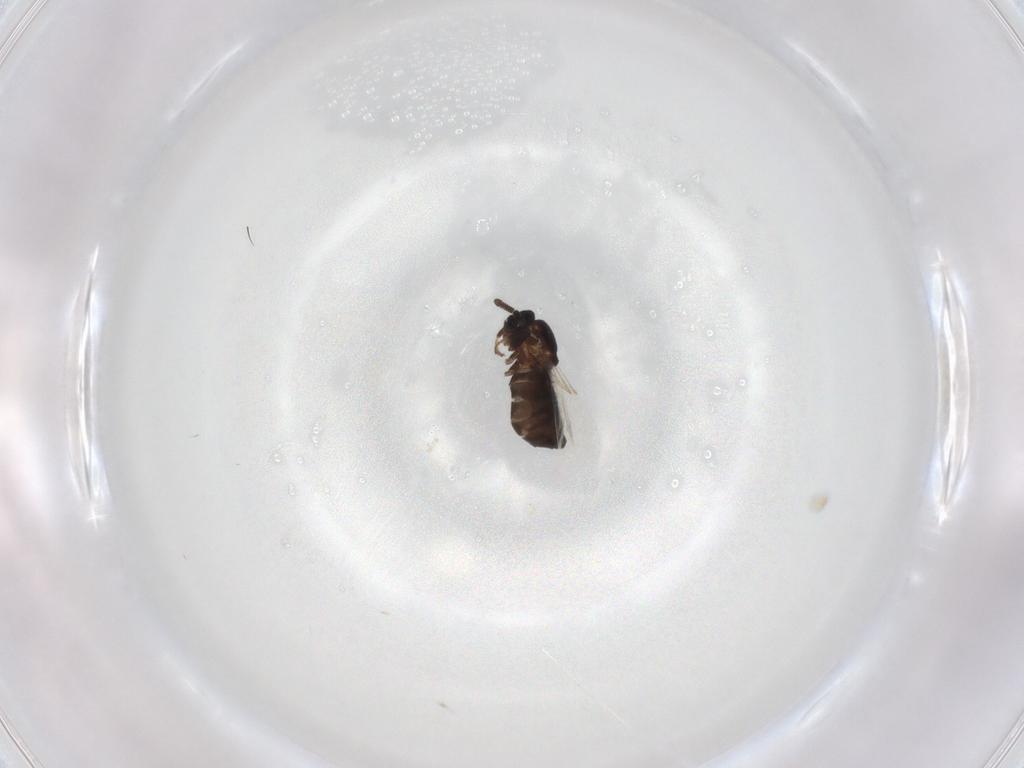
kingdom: Animalia
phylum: Arthropoda
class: Insecta
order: Diptera
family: Scatopsidae
